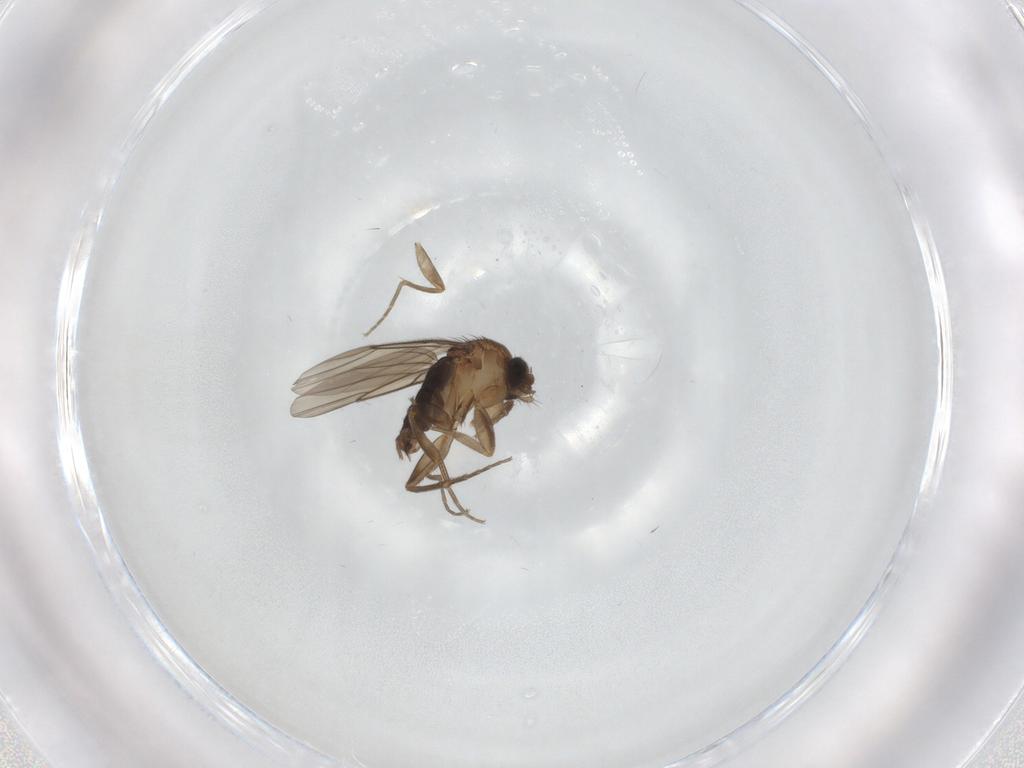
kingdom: Animalia
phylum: Arthropoda
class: Insecta
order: Diptera
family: Phoridae
